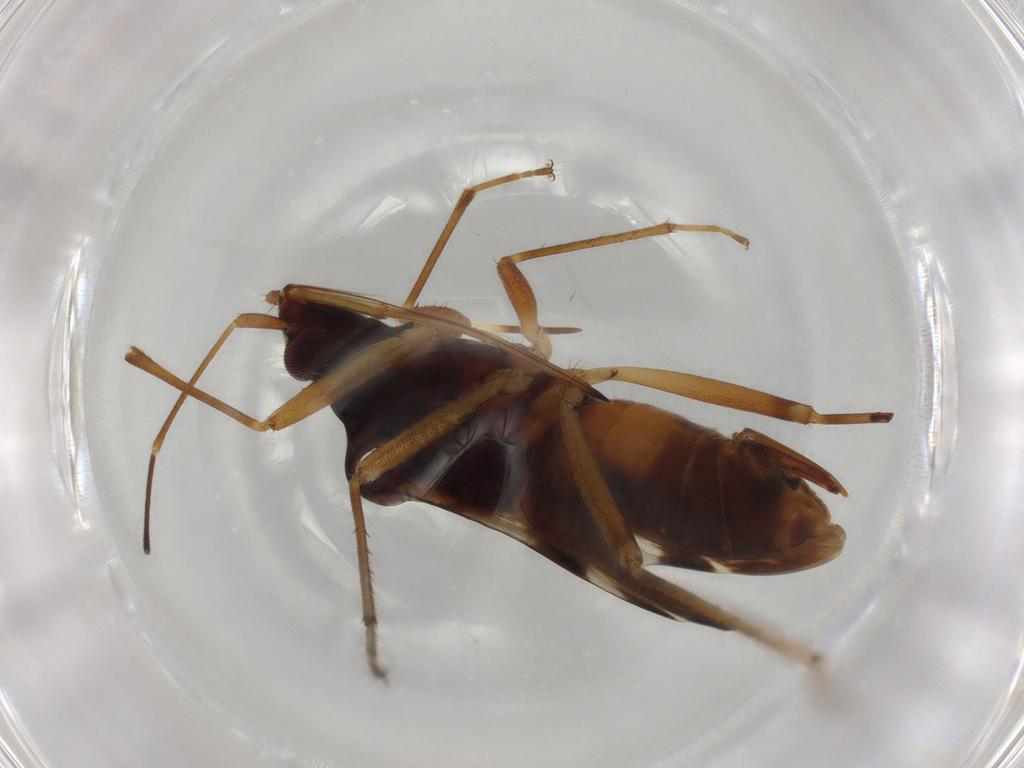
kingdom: Animalia
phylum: Arthropoda
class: Insecta
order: Hemiptera
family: Rhyparochromidae
